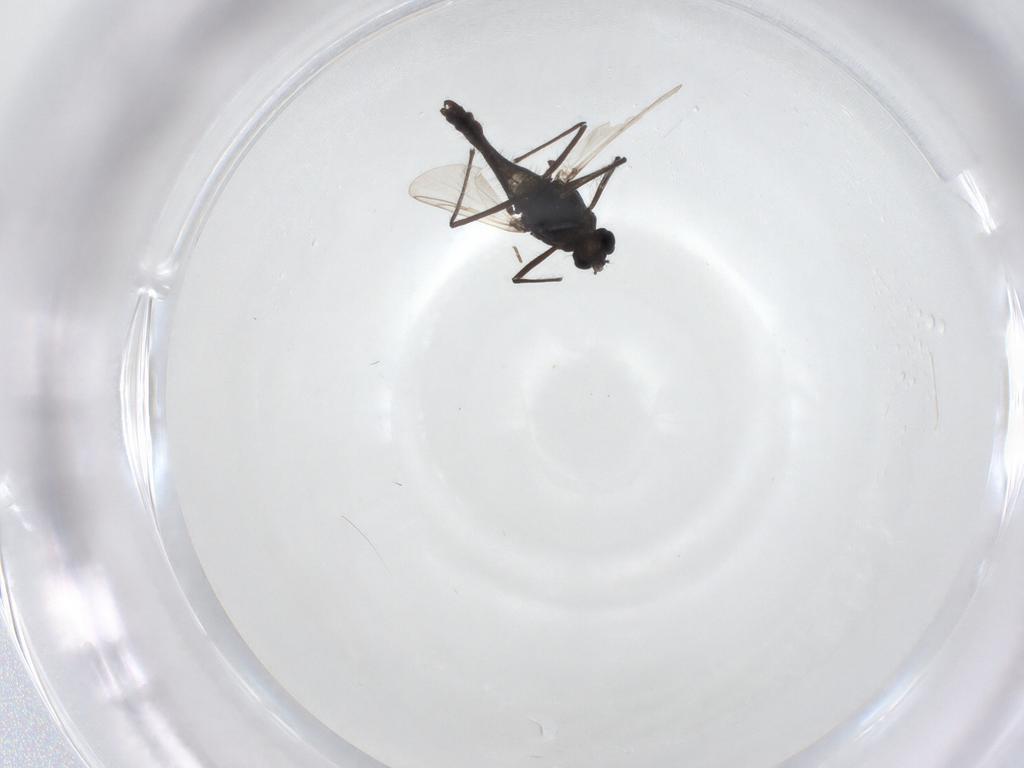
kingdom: Animalia
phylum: Arthropoda
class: Insecta
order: Diptera
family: Chironomidae
